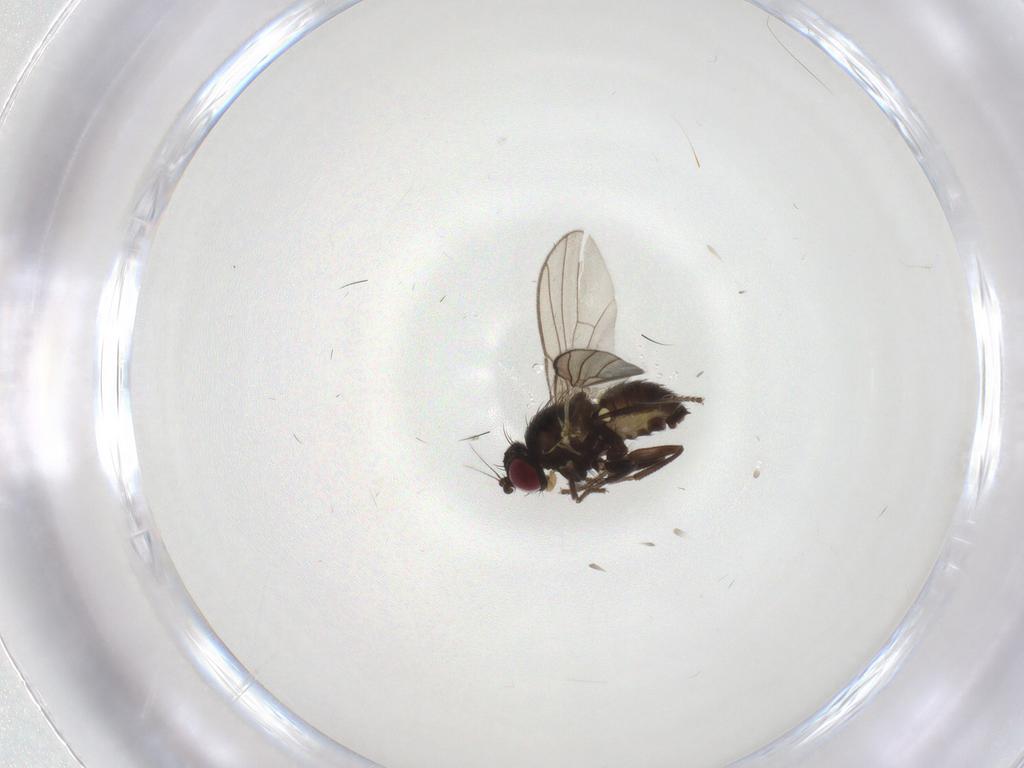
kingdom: Animalia
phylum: Arthropoda
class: Insecta
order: Diptera
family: Agromyzidae
